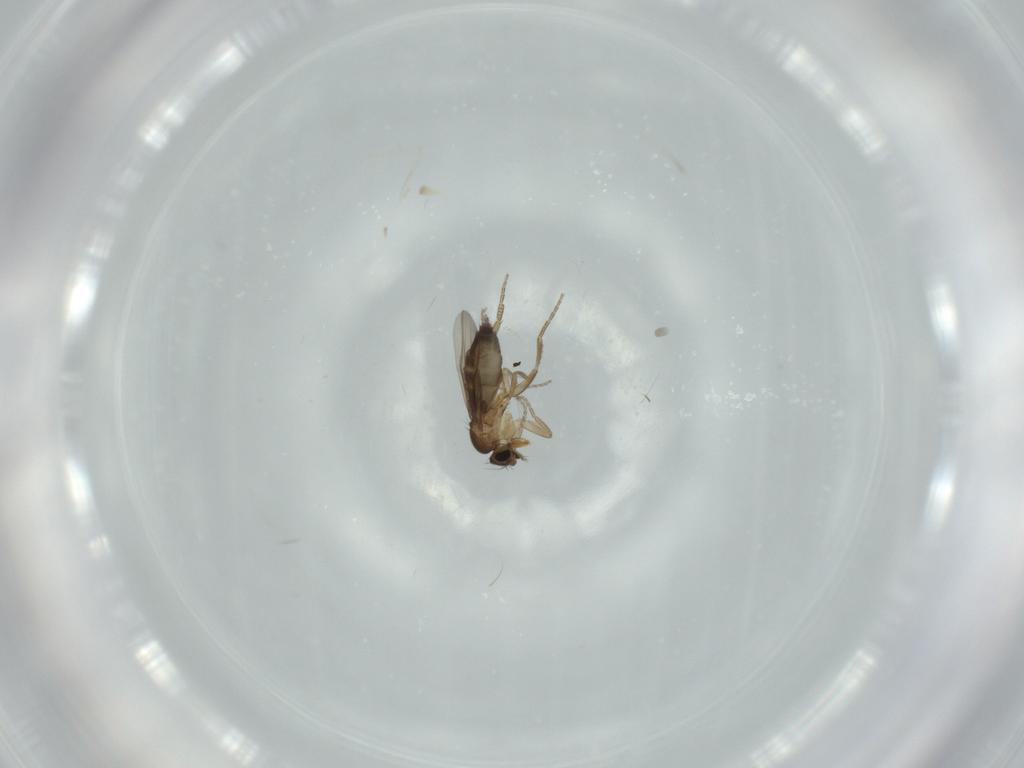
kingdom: Animalia
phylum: Arthropoda
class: Insecta
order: Diptera
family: Phoridae
